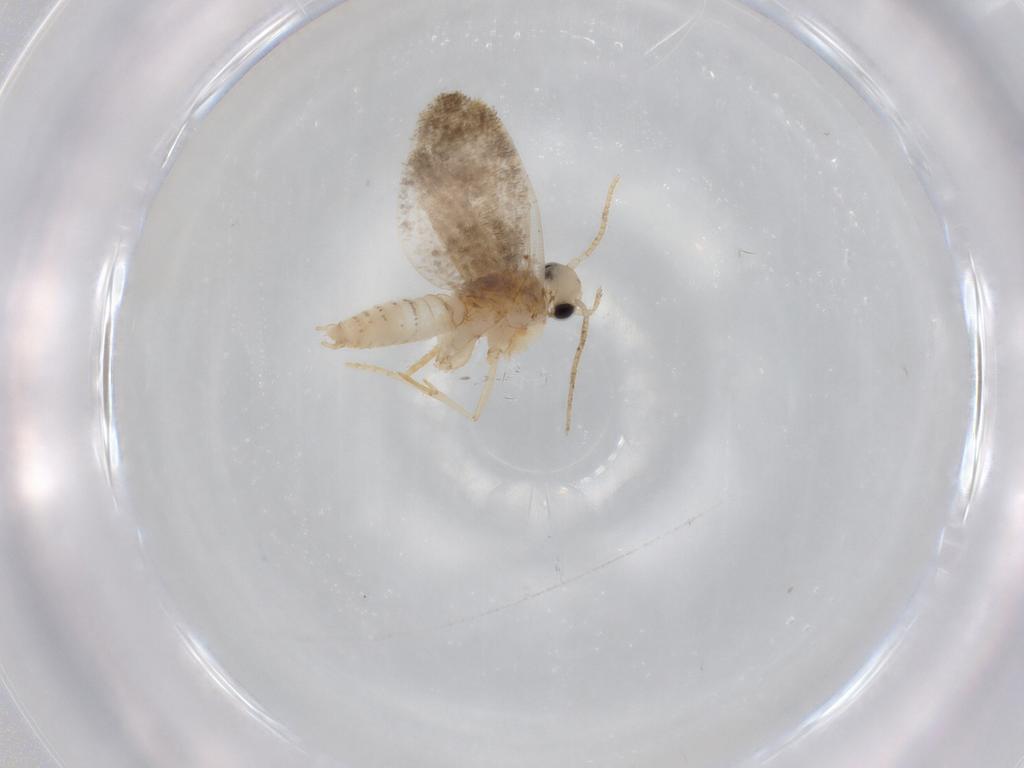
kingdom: Animalia
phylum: Arthropoda
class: Insecta
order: Lepidoptera
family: Psychidae
